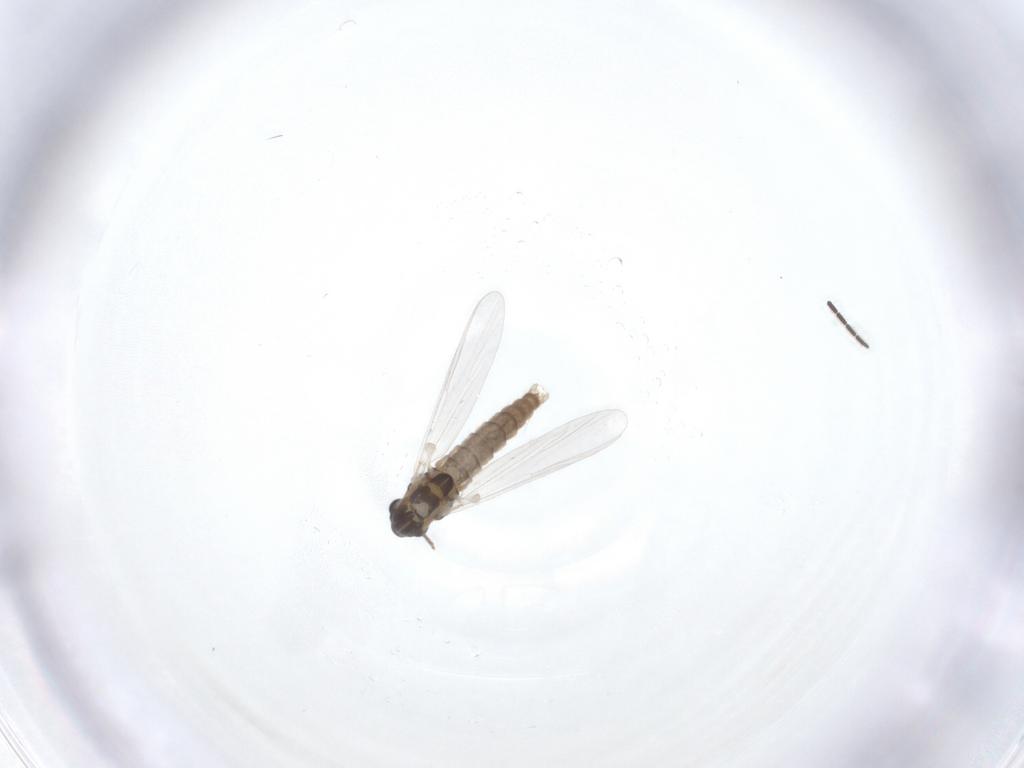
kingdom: Animalia
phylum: Arthropoda
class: Insecta
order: Diptera
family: Chironomidae
